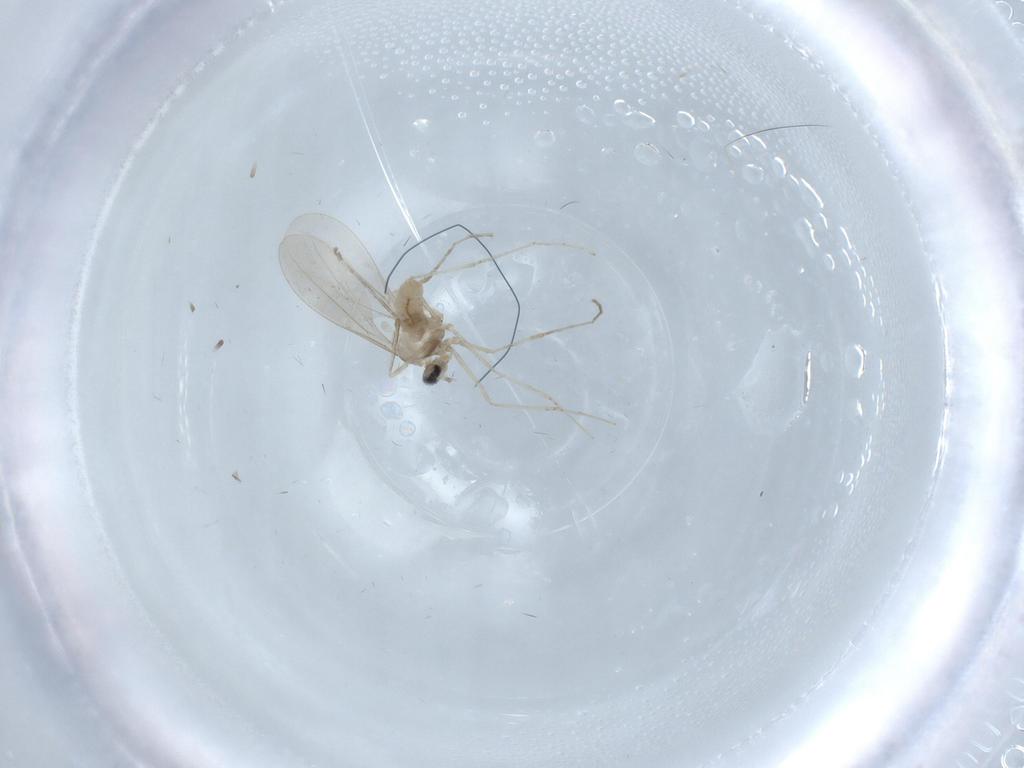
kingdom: Animalia
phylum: Arthropoda
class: Insecta
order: Diptera
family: Cecidomyiidae
